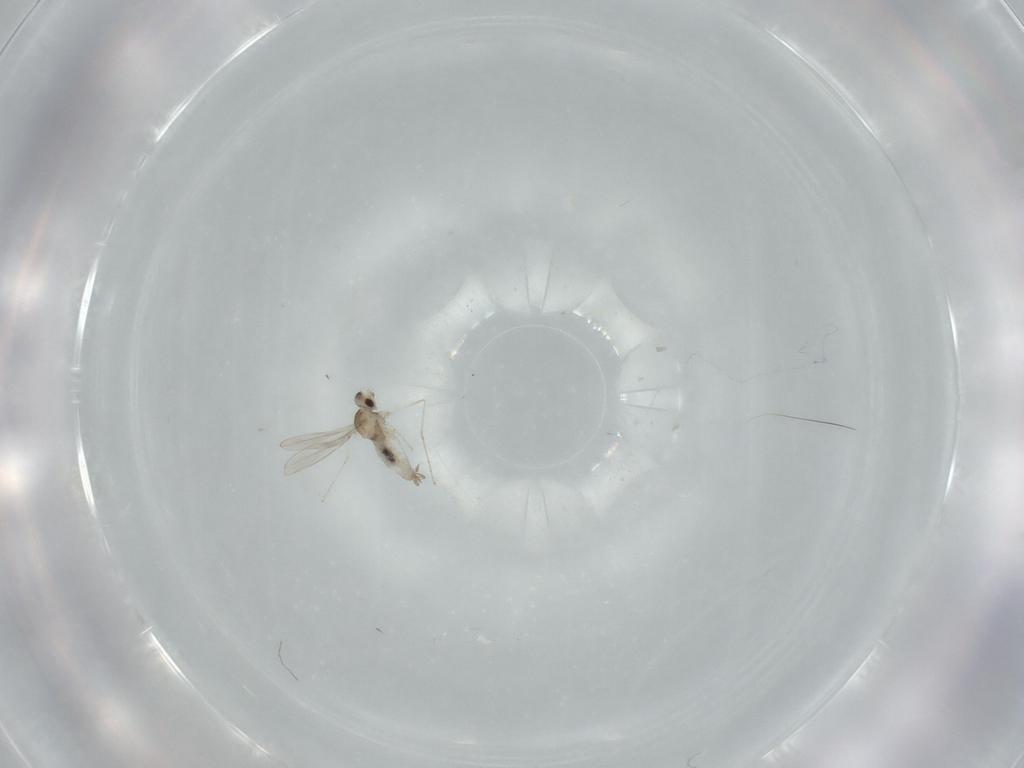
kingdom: Animalia
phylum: Arthropoda
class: Insecta
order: Diptera
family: Cecidomyiidae
